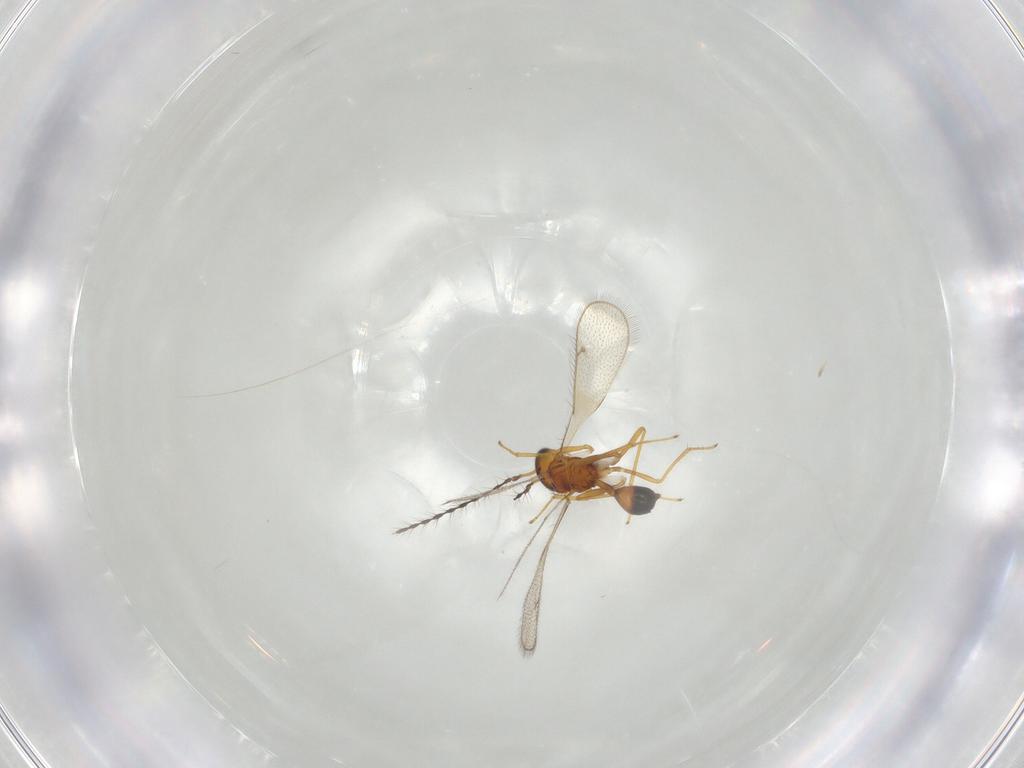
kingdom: Animalia
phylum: Arthropoda
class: Insecta
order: Hymenoptera
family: Diparidae
